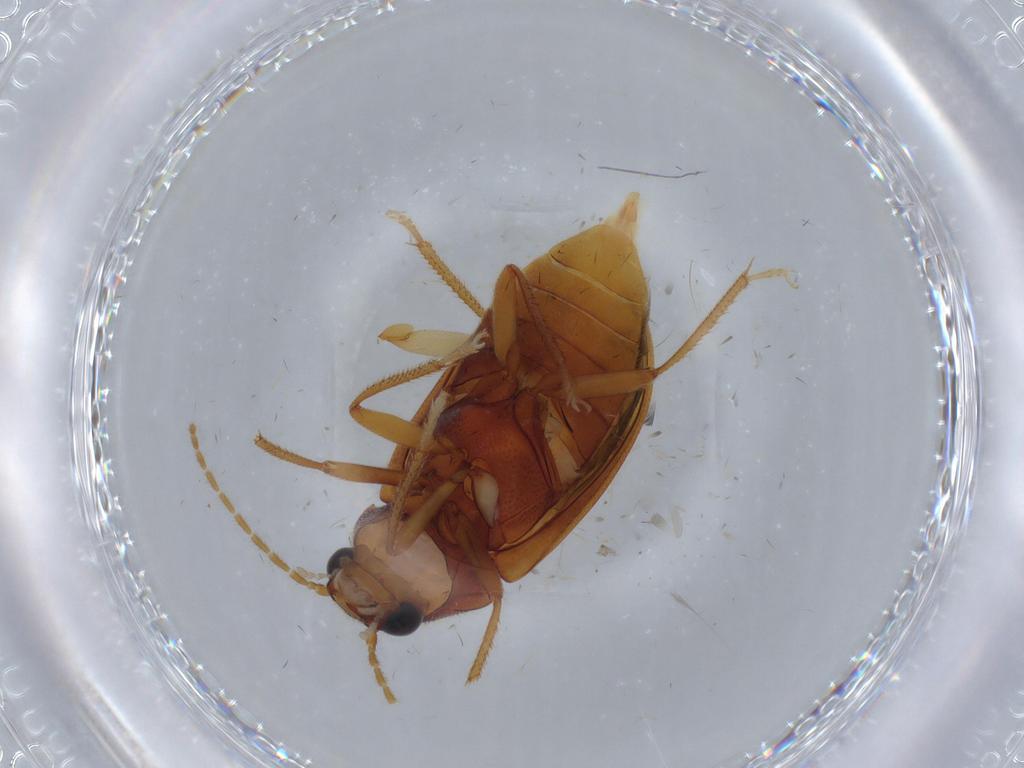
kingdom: Animalia
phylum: Arthropoda
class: Insecta
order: Coleoptera
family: Ptilodactylidae
